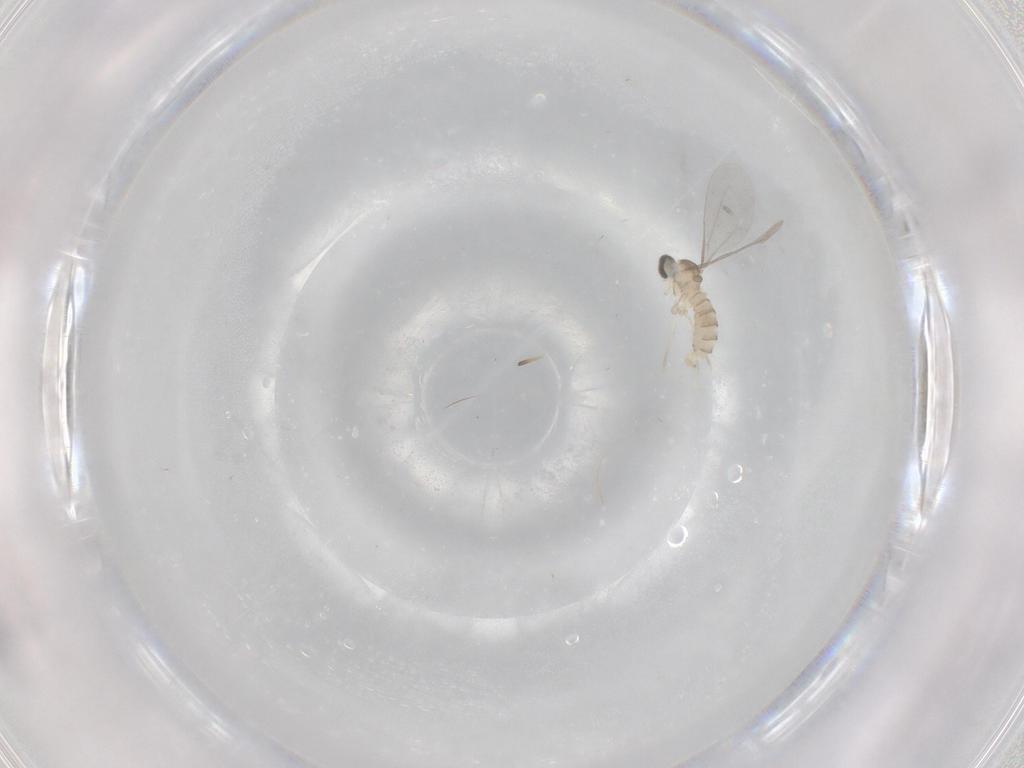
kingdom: Animalia
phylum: Arthropoda
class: Insecta
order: Diptera
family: Cecidomyiidae
